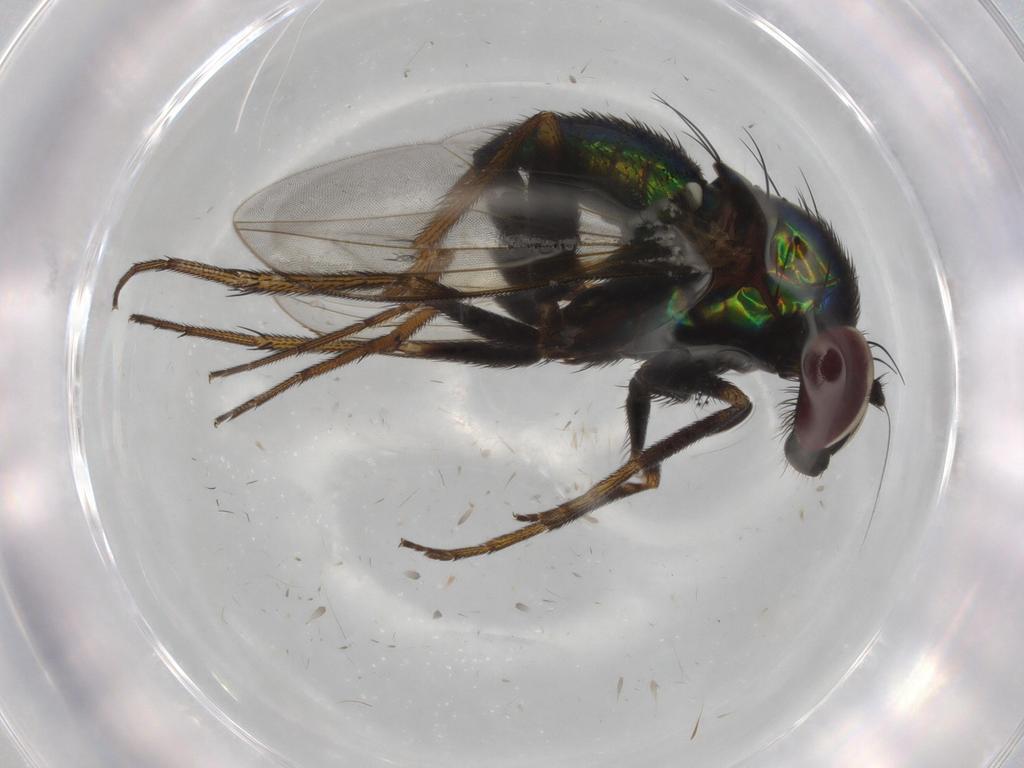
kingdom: Animalia
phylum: Arthropoda
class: Insecta
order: Diptera
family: Dolichopodidae
